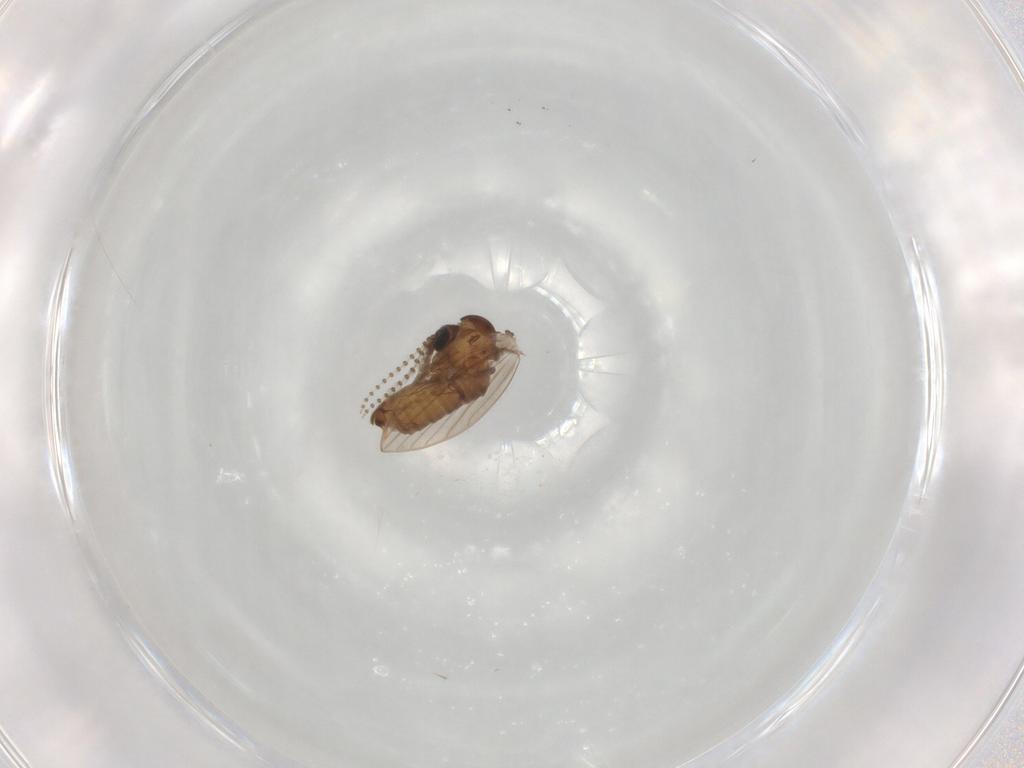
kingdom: Animalia
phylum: Arthropoda
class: Insecta
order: Diptera
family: Psychodidae
